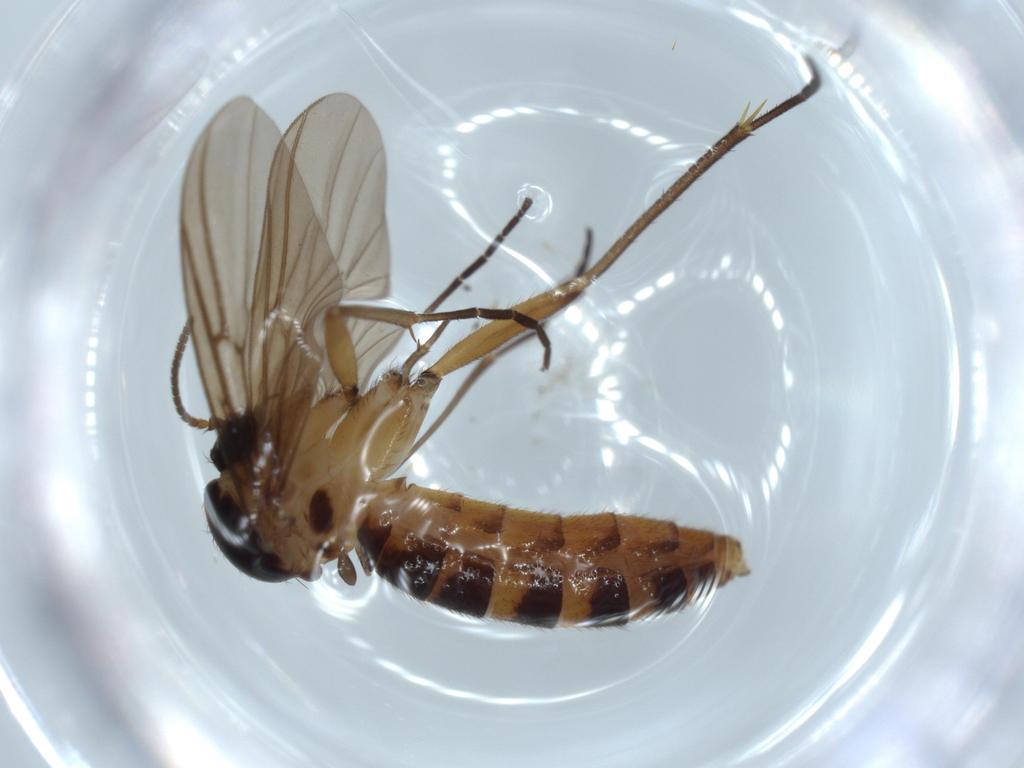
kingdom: Animalia
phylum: Arthropoda
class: Insecta
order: Diptera
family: Mycetophilidae
